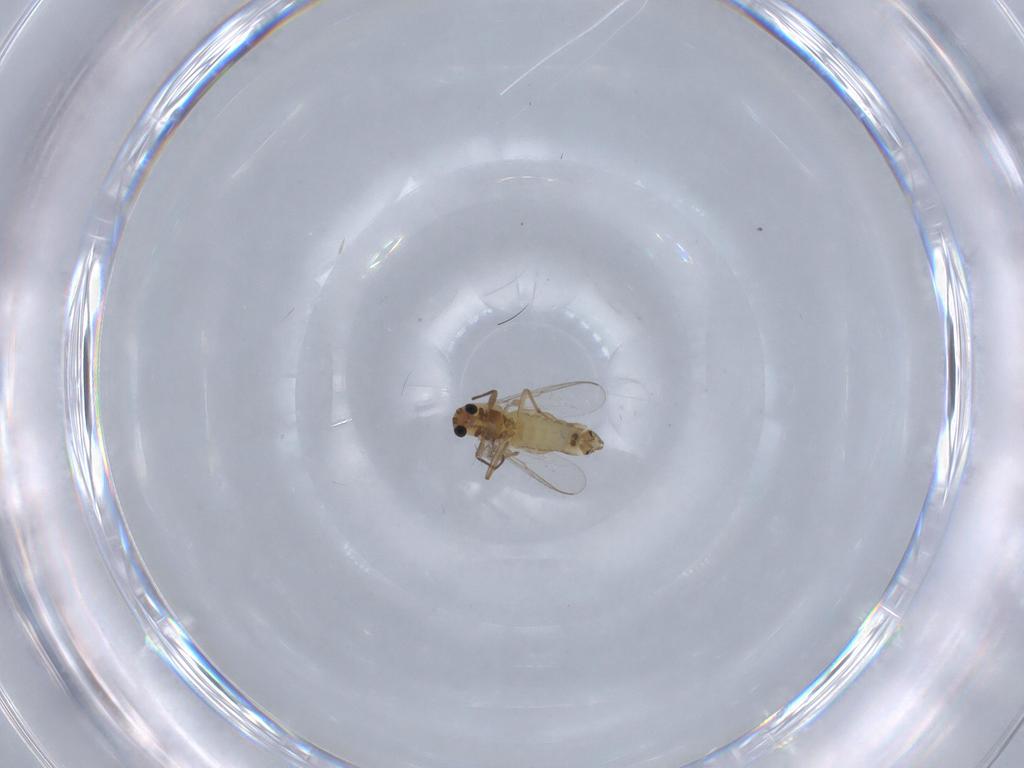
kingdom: Animalia
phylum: Arthropoda
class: Insecta
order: Diptera
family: Chironomidae
